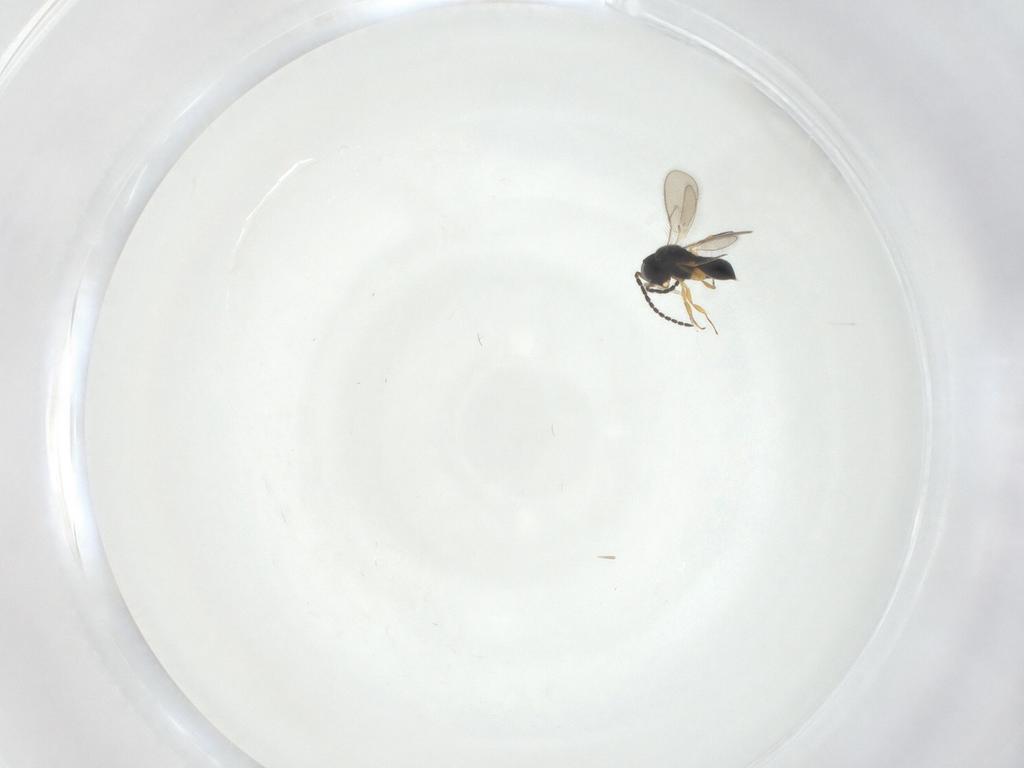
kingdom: Animalia
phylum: Arthropoda
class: Insecta
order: Hymenoptera
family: Scelionidae
